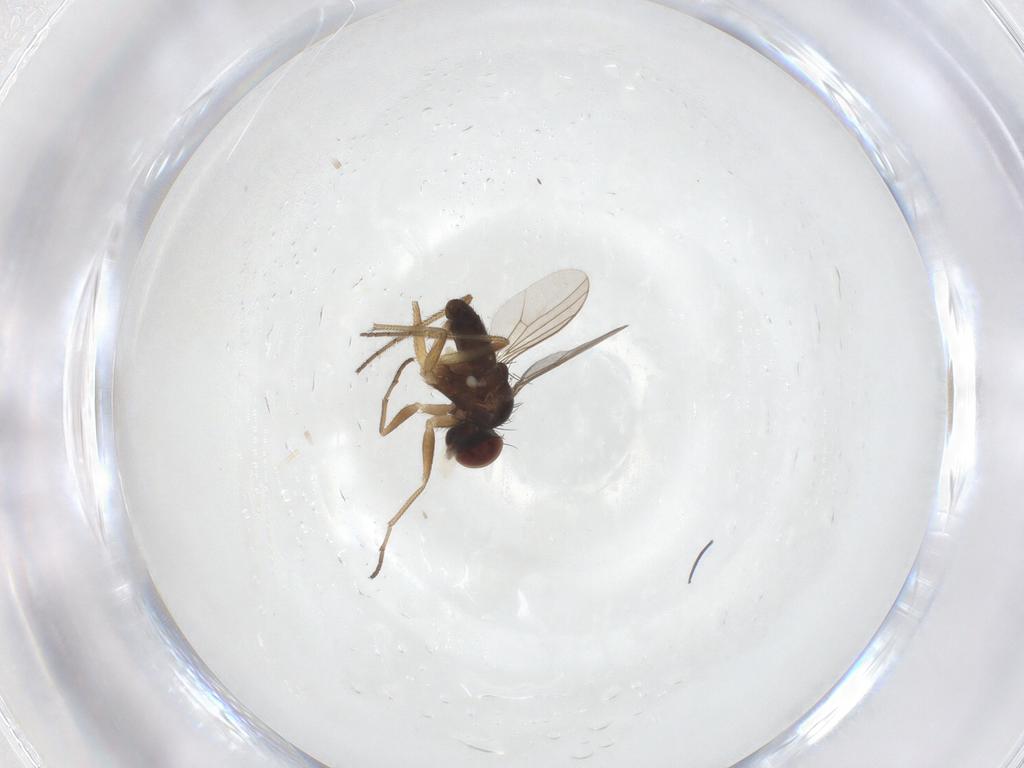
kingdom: Animalia
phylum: Arthropoda
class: Insecta
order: Diptera
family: Dolichopodidae
